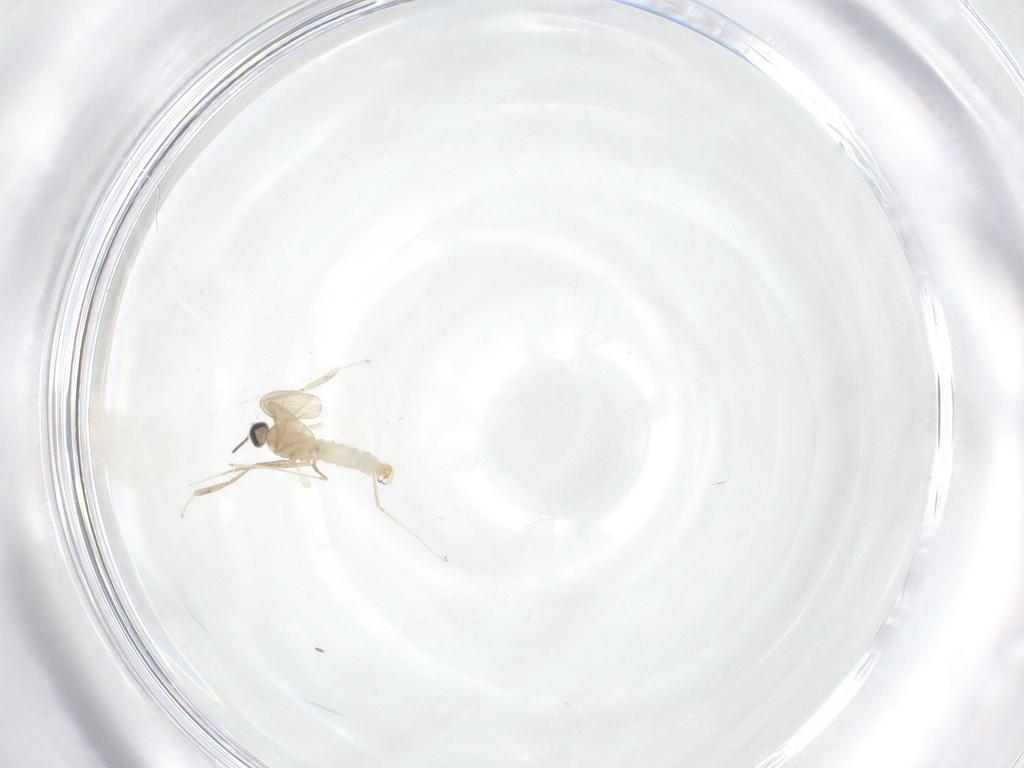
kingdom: Animalia
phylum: Arthropoda
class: Insecta
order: Diptera
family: Cecidomyiidae
